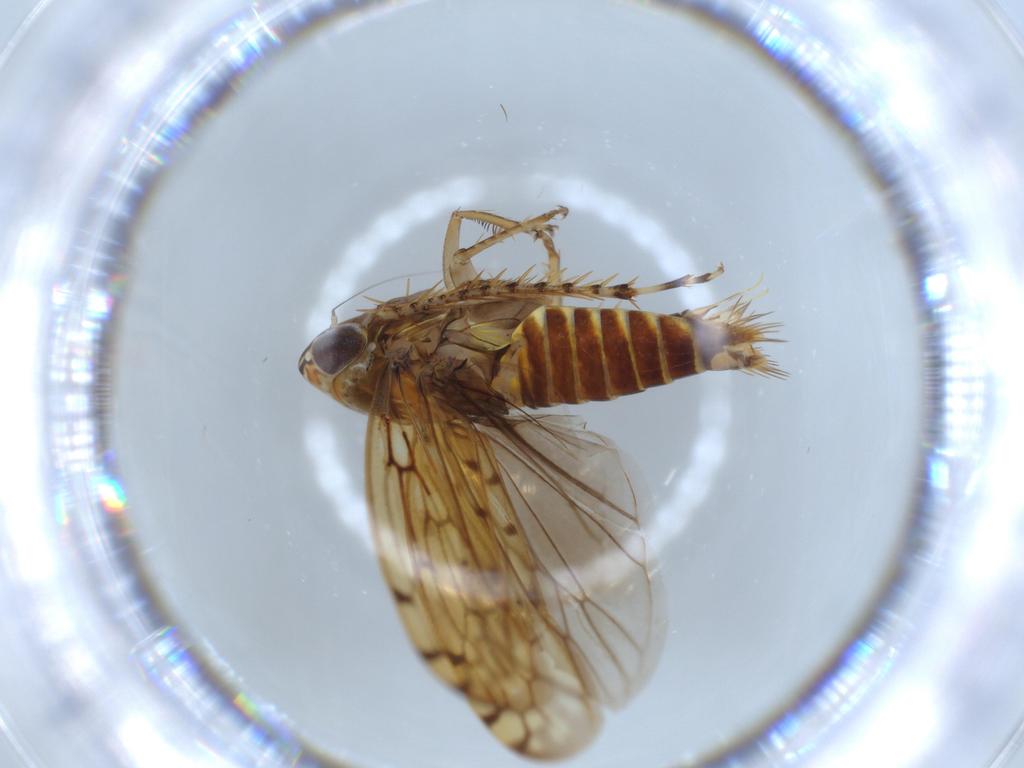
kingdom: Animalia
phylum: Arthropoda
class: Insecta
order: Hemiptera
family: Cicadellidae
